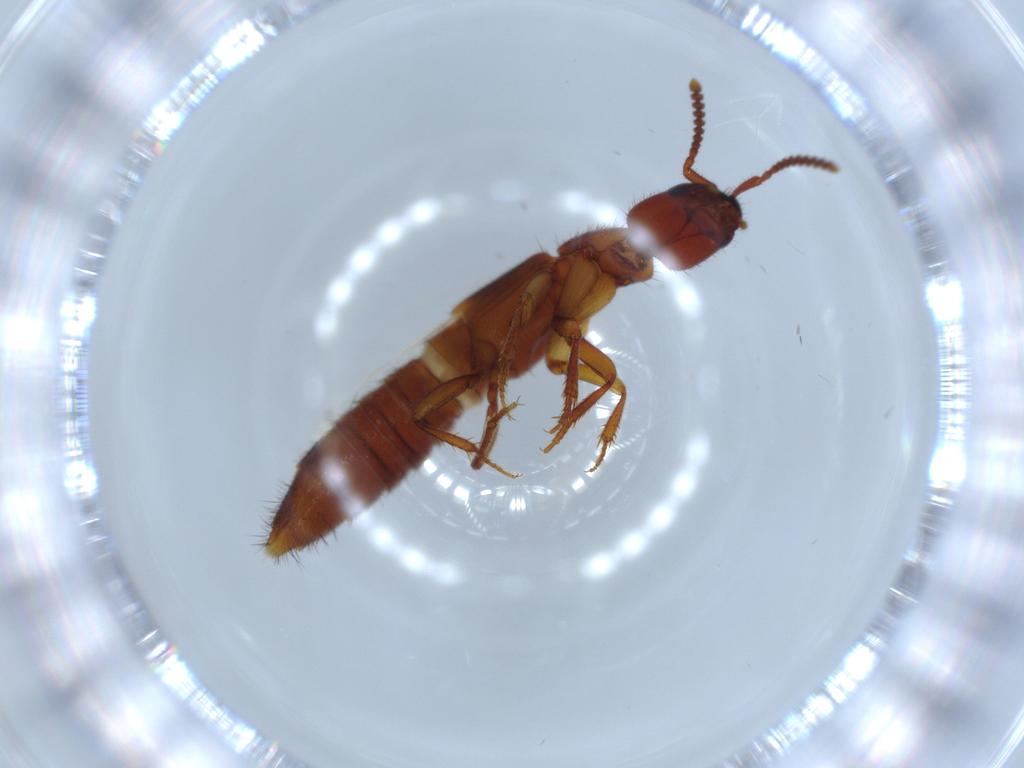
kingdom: Animalia
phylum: Arthropoda
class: Insecta
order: Coleoptera
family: Staphylinidae
